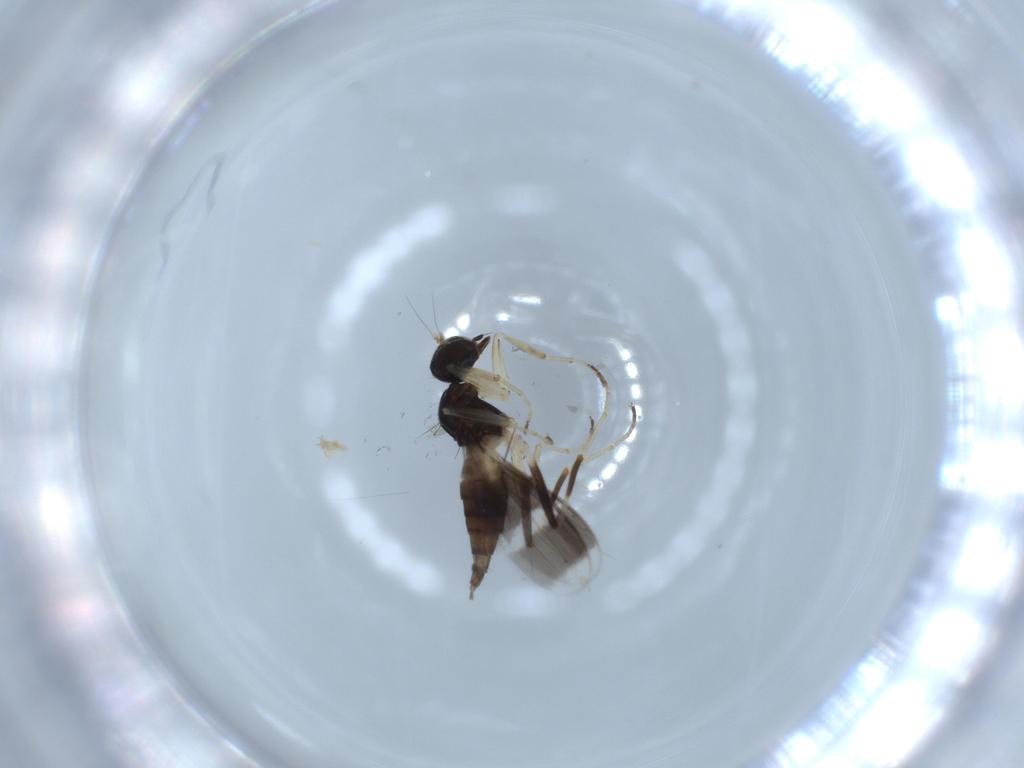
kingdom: Animalia
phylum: Arthropoda
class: Insecta
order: Diptera
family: Hybotidae
